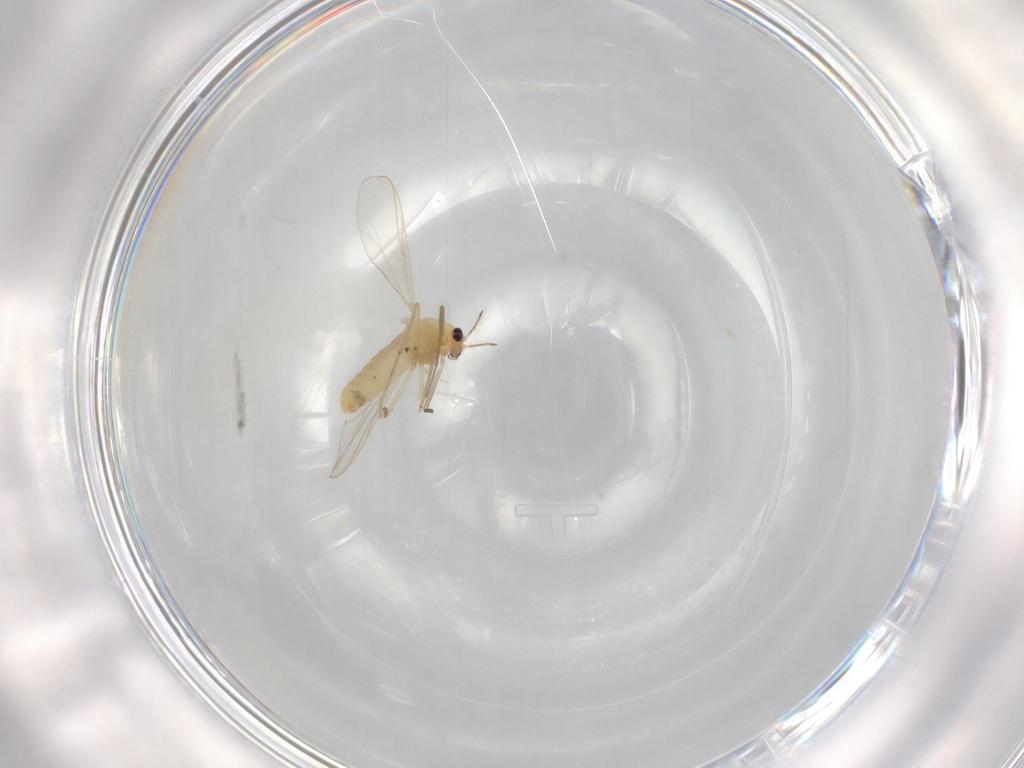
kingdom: Animalia
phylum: Arthropoda
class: Insecta
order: Diptera
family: Chironomidae
